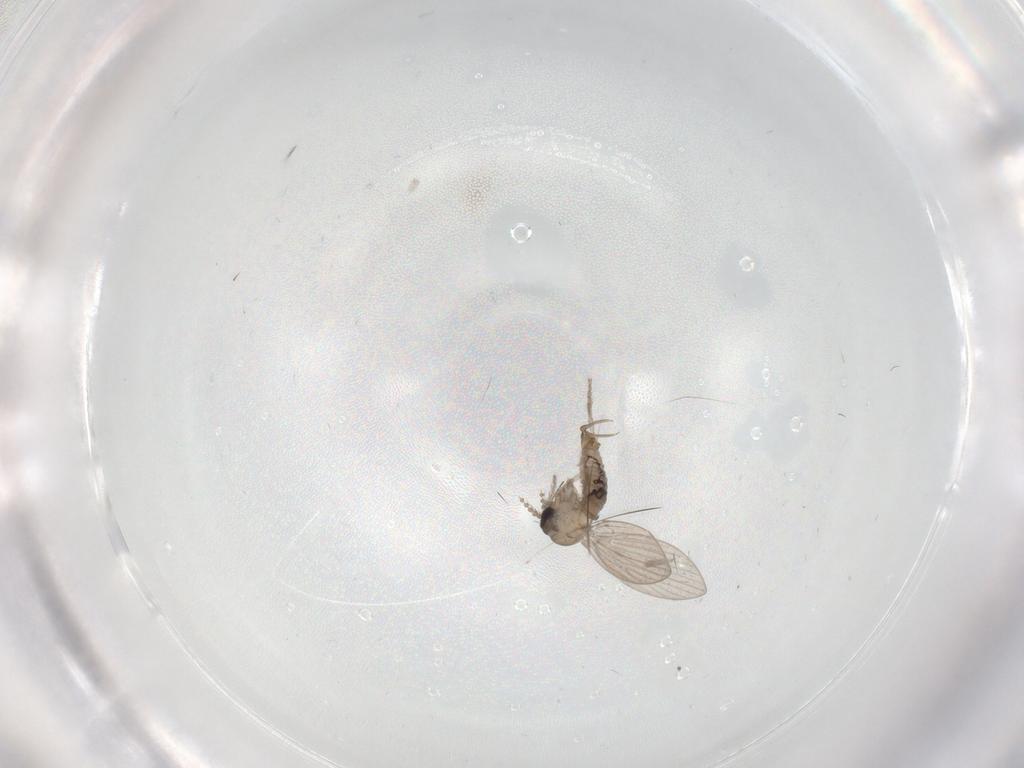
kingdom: Animalia
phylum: Arthropoda
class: Insecta
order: Diptera
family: Psychodidae
